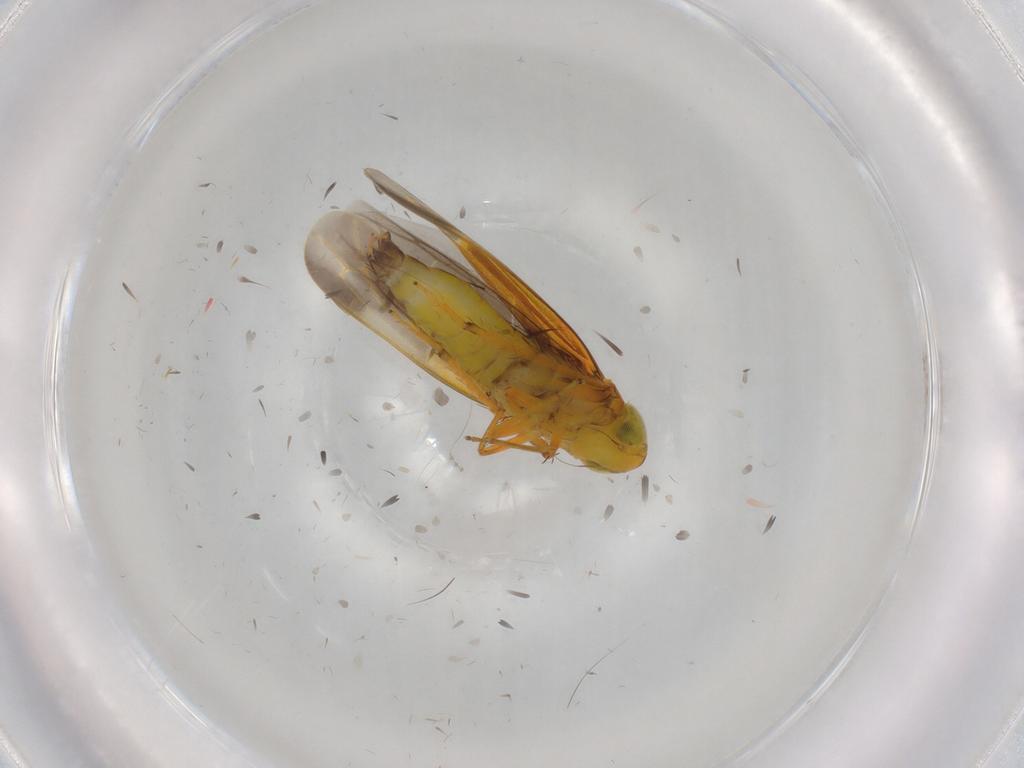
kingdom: Animalia
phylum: Arthropoda
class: Insecta
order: Hemiptera
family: Cicadellidae
